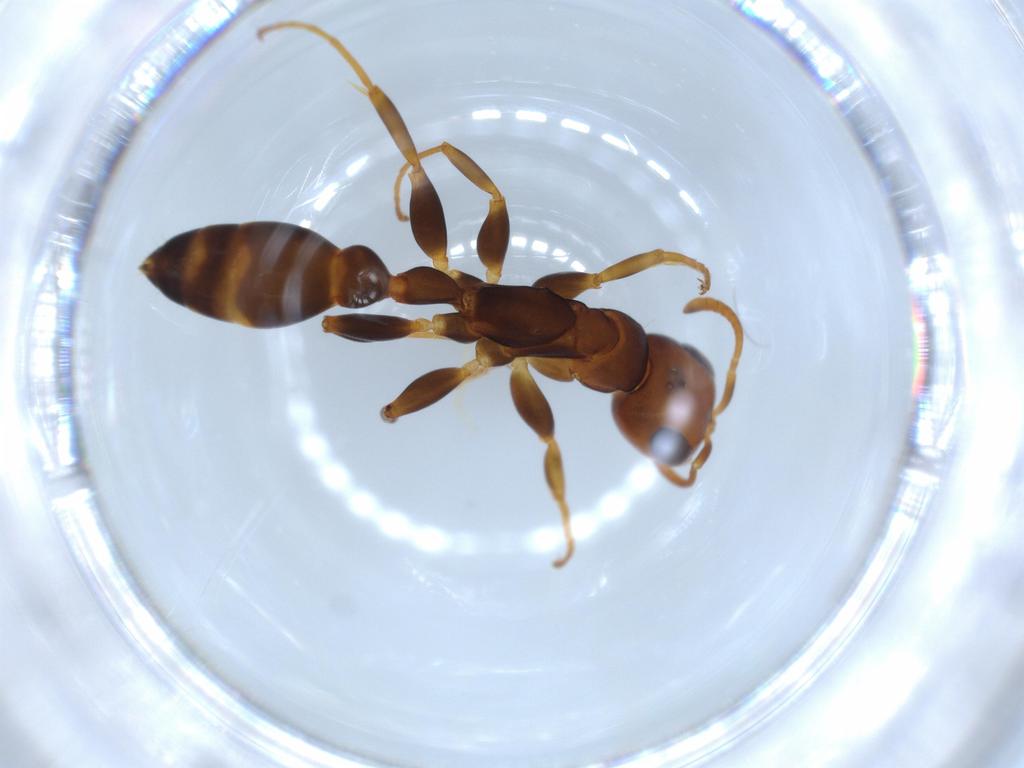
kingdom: Animalia
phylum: Arthropoda
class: Insecta
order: Hymenoptera
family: Formicidae
